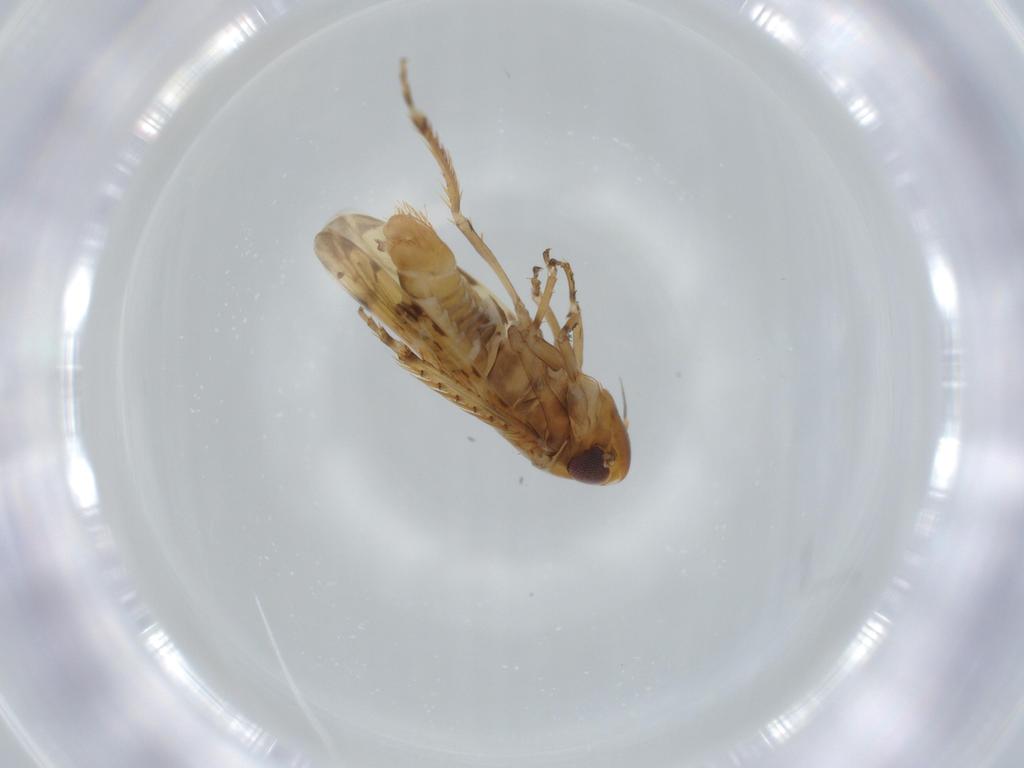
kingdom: Animalia
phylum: Arthropoda
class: Insecta
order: Hemiptera
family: Cicadellidae
